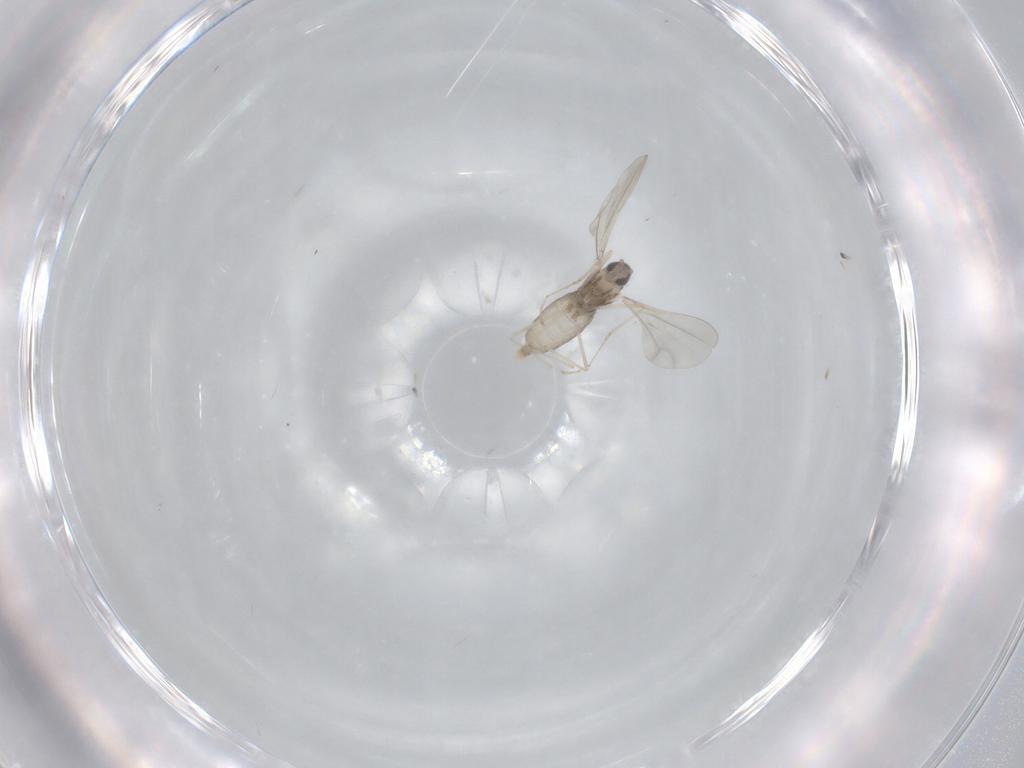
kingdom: Animalia
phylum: Arthropoda
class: Insecta
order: Diptera
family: Cecidomyiidae
